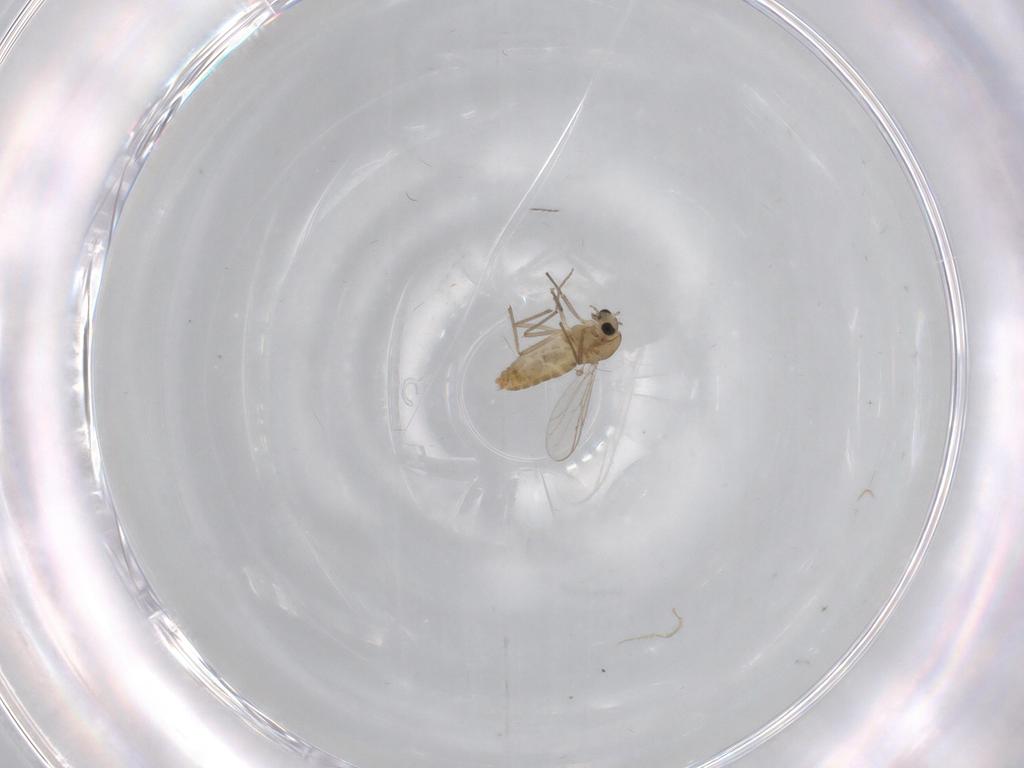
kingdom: Animalia
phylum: Arthropoda
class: Insecta
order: Diptera
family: Chironomidae
